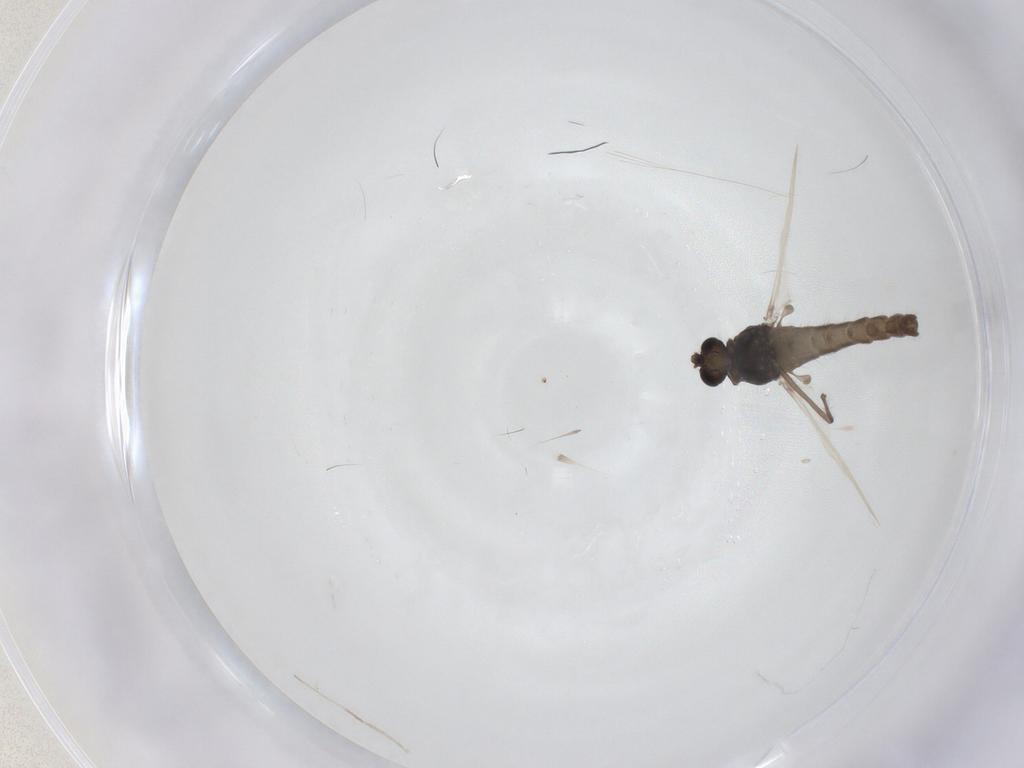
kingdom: Animalia
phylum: Arthropoda
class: Insecta
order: Diptera
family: Chironomidae
